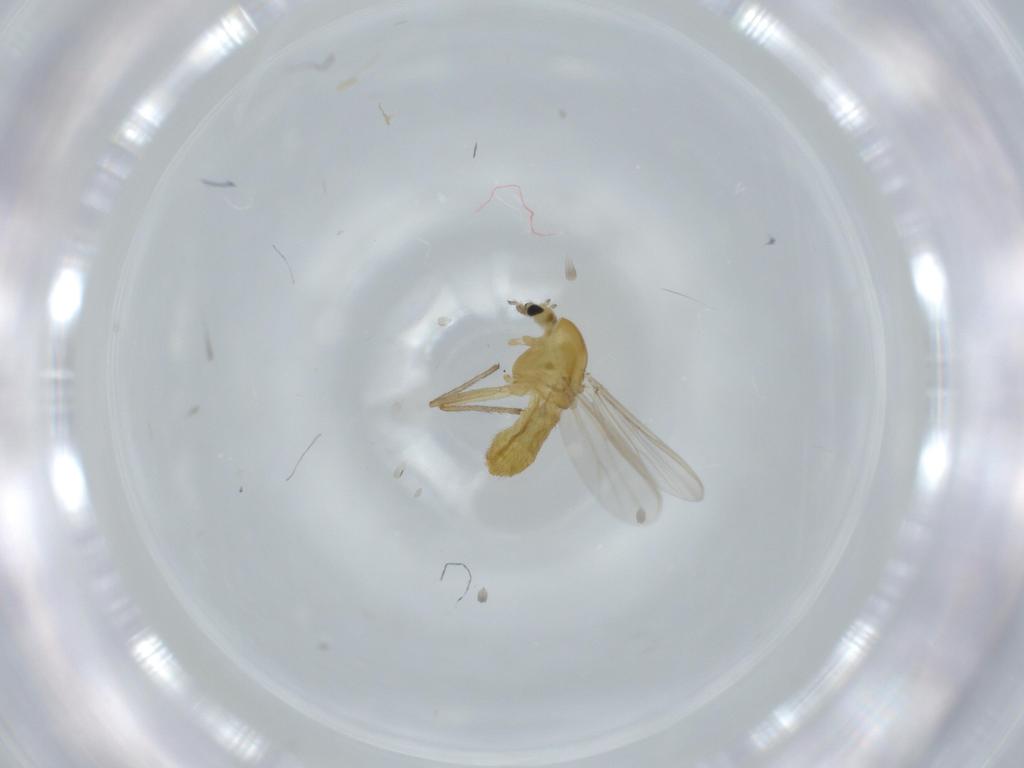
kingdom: Animalia
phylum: Arthropoda
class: Insecta
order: Diptera
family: Chironomidae
